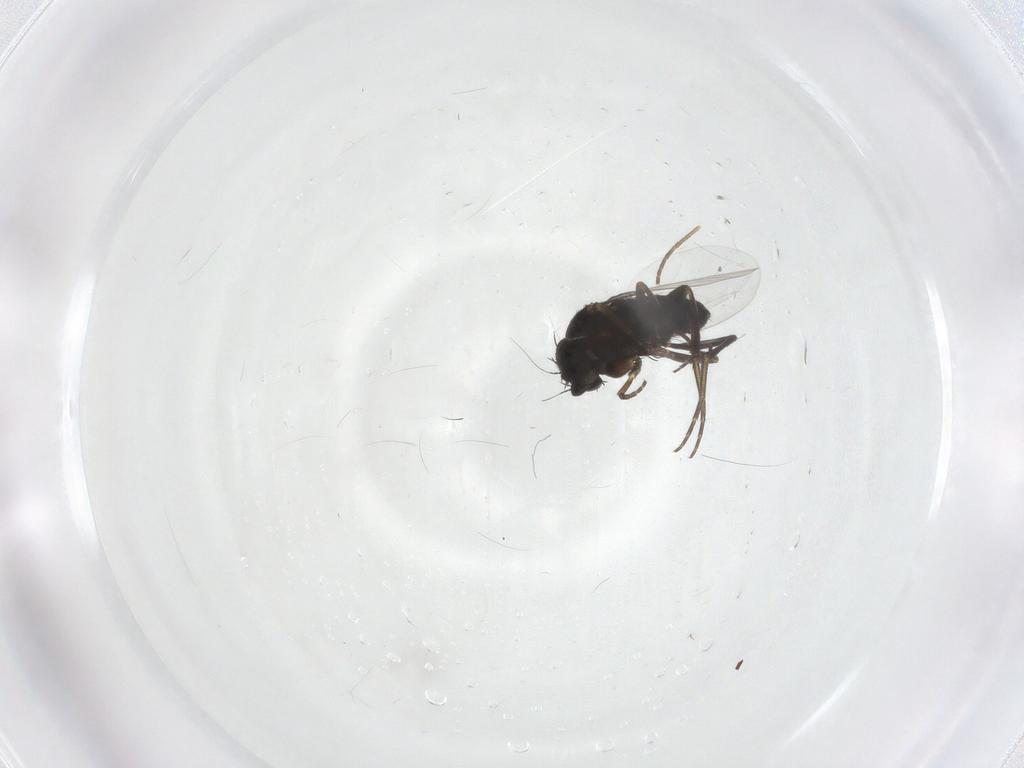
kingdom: Animalia
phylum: Arthropoda
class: Insecta
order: Diptera
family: Phoridae
